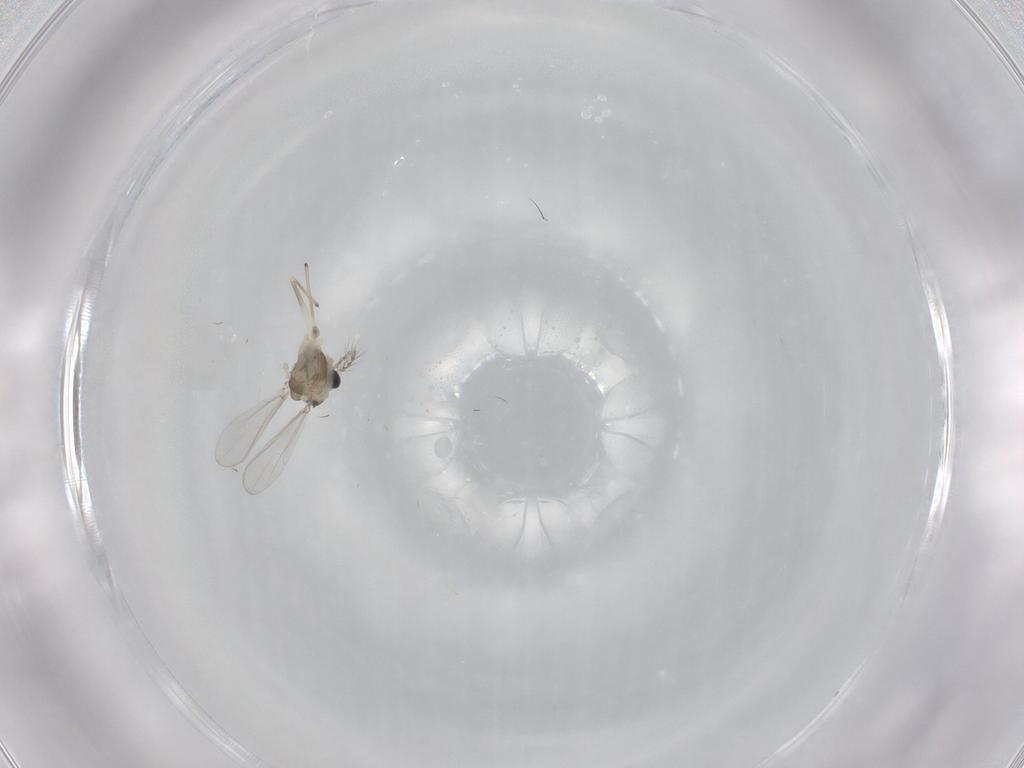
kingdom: Animalia
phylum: Arthropoda
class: Insecta
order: Diptera
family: Chironomidae
